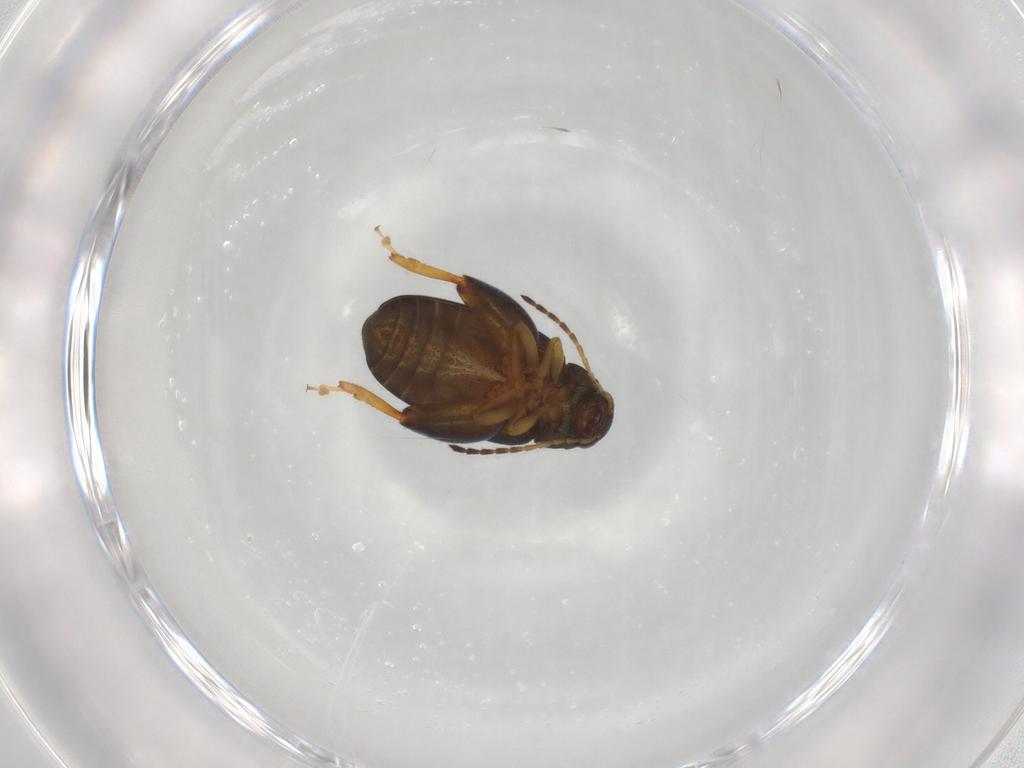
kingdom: Animalia
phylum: Arthropoda
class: Insecta
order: Coleoptera
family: Chrysomelidae
